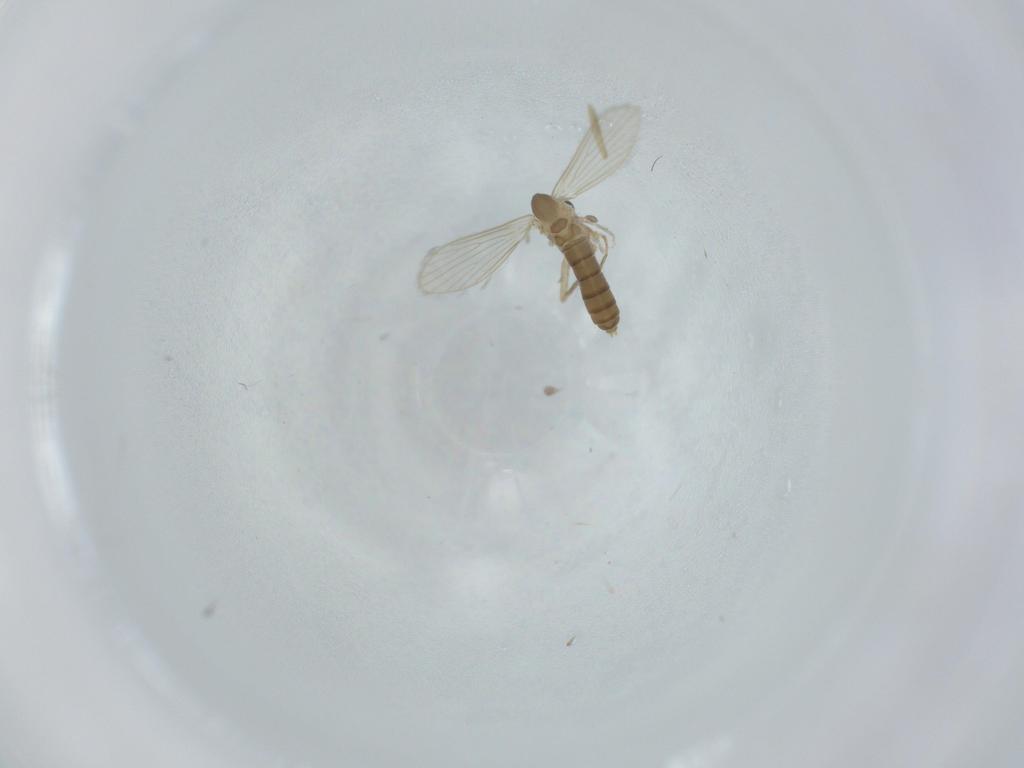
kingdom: Animalia
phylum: Arthropoda
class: Insecta
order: Diptera
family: Psychodidae
